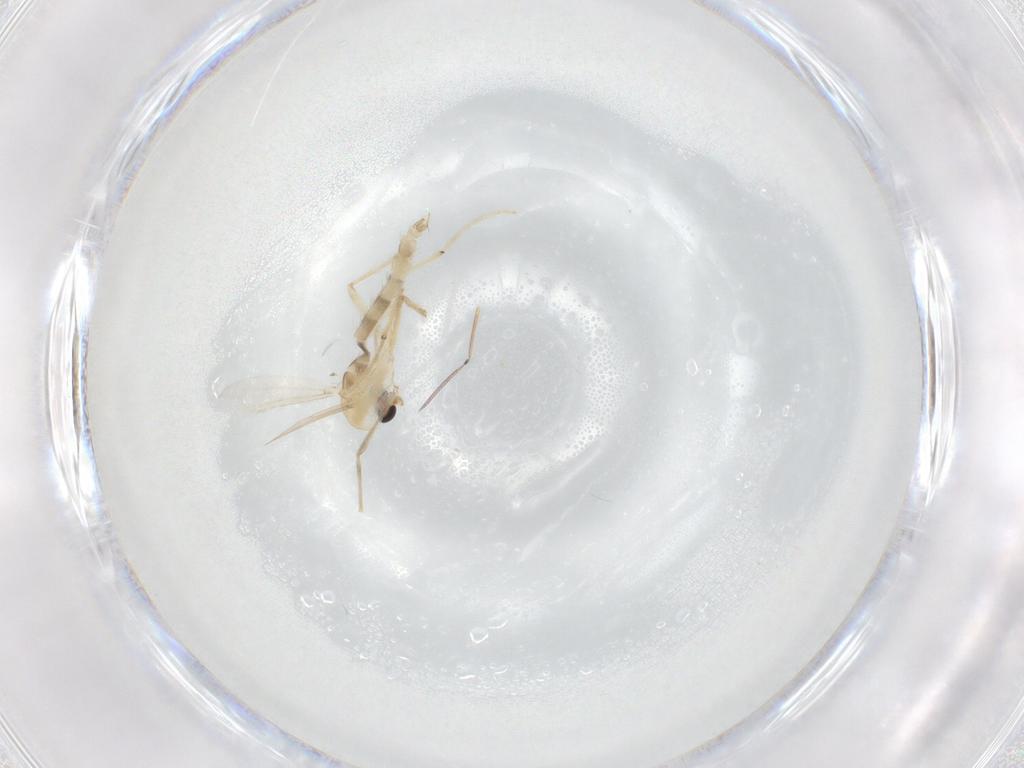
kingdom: Animalia
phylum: Arthropoda
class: Insecta
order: Diptera
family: Chironomidae
